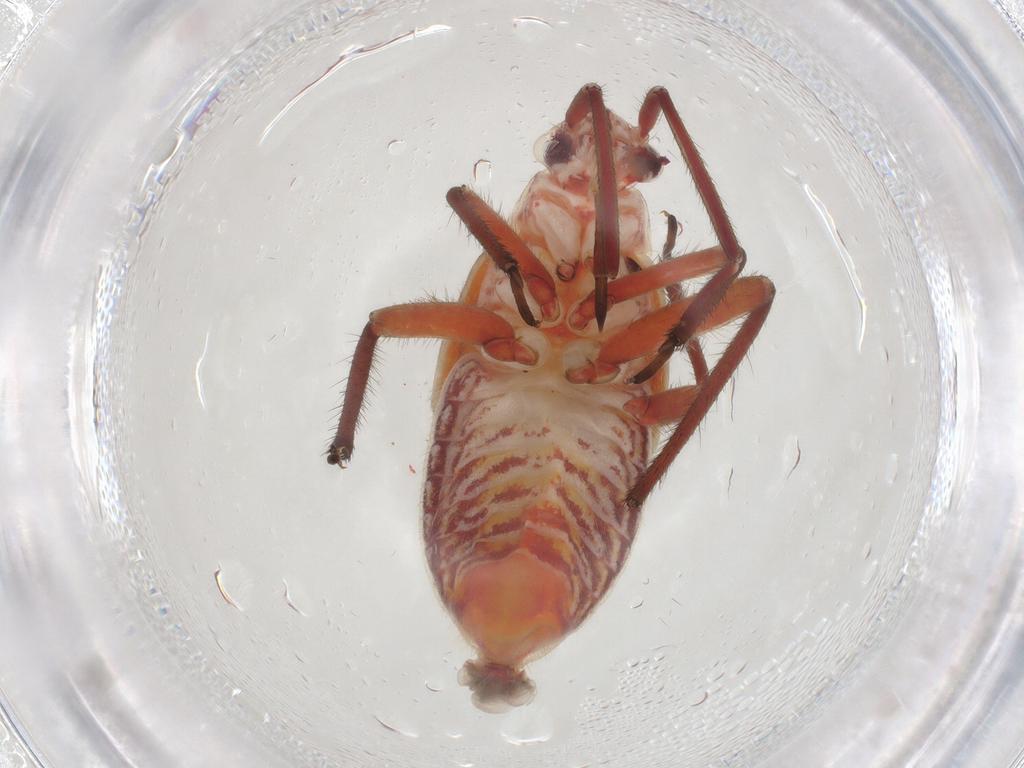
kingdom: Animalia
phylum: Arthropoda
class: Insecta
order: Hemiptera
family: Miridae
